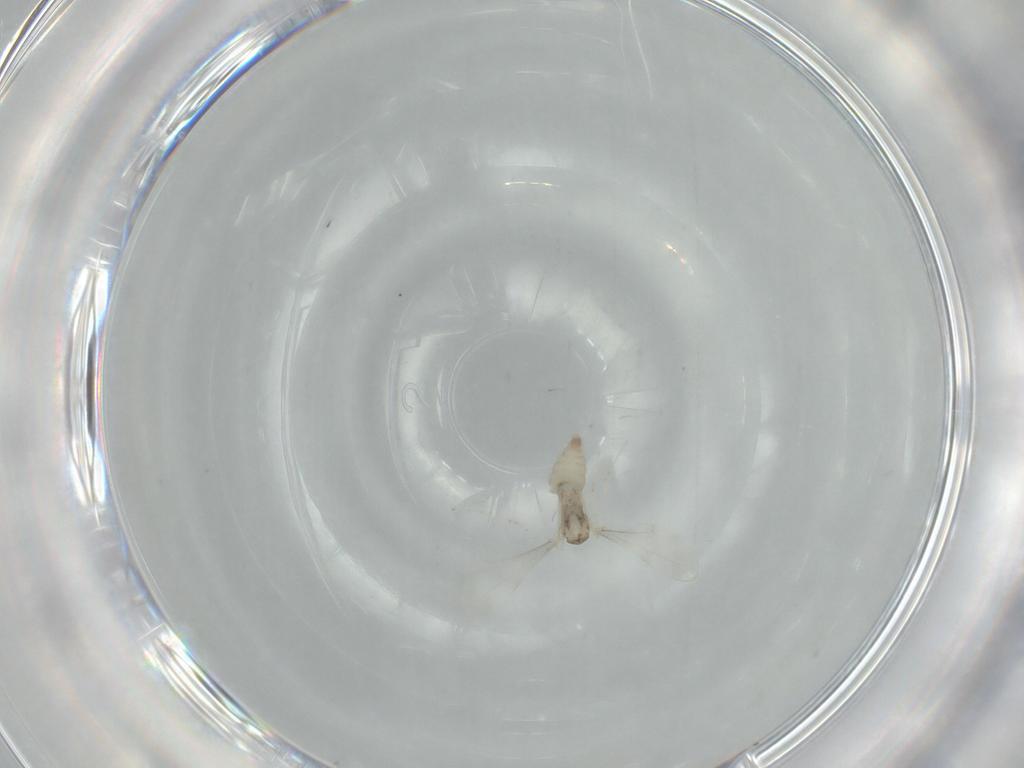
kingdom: Animalia
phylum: Arthropoda
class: Insecta
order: Diptera
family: Cecidomyiidae
